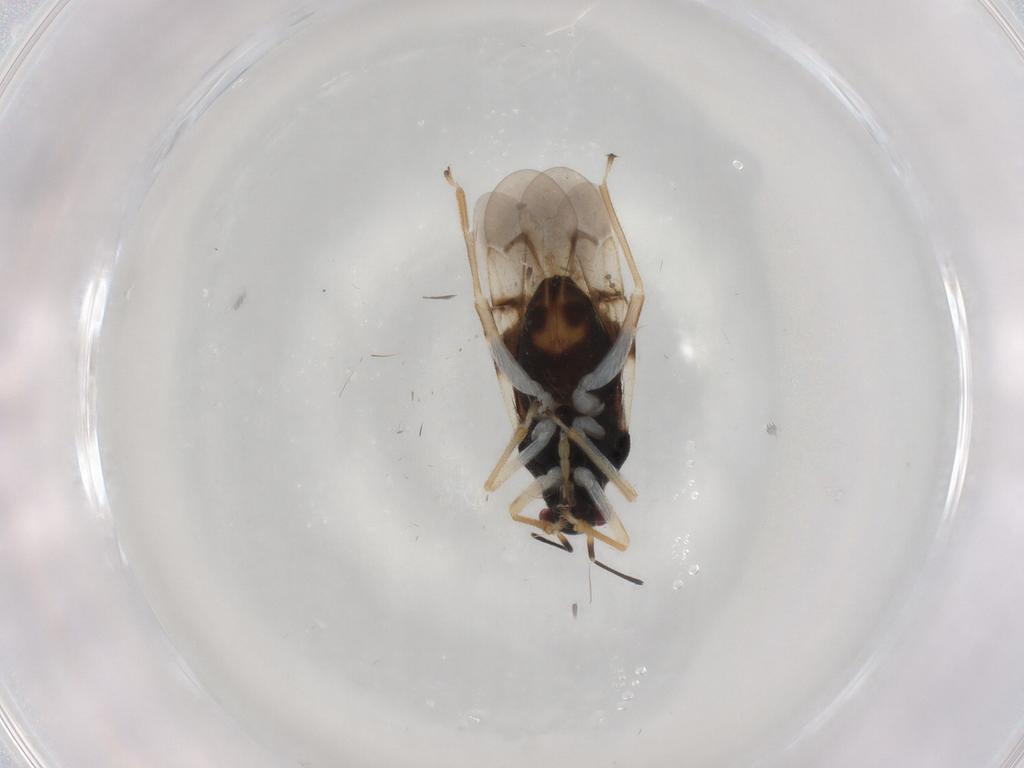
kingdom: Animalia
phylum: Arthropoda
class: Insecta
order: Hemiptera
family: Miridae
